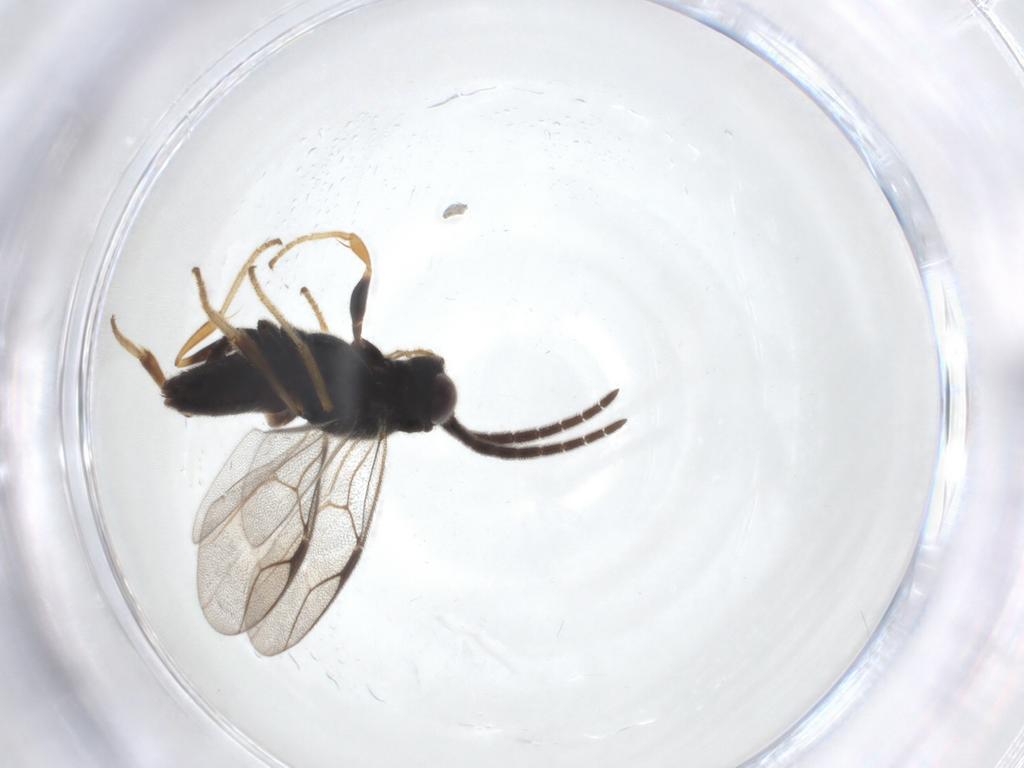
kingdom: Animalia
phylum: Arthropoda
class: Insecta
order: Hymenoptera
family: Dryinidae
